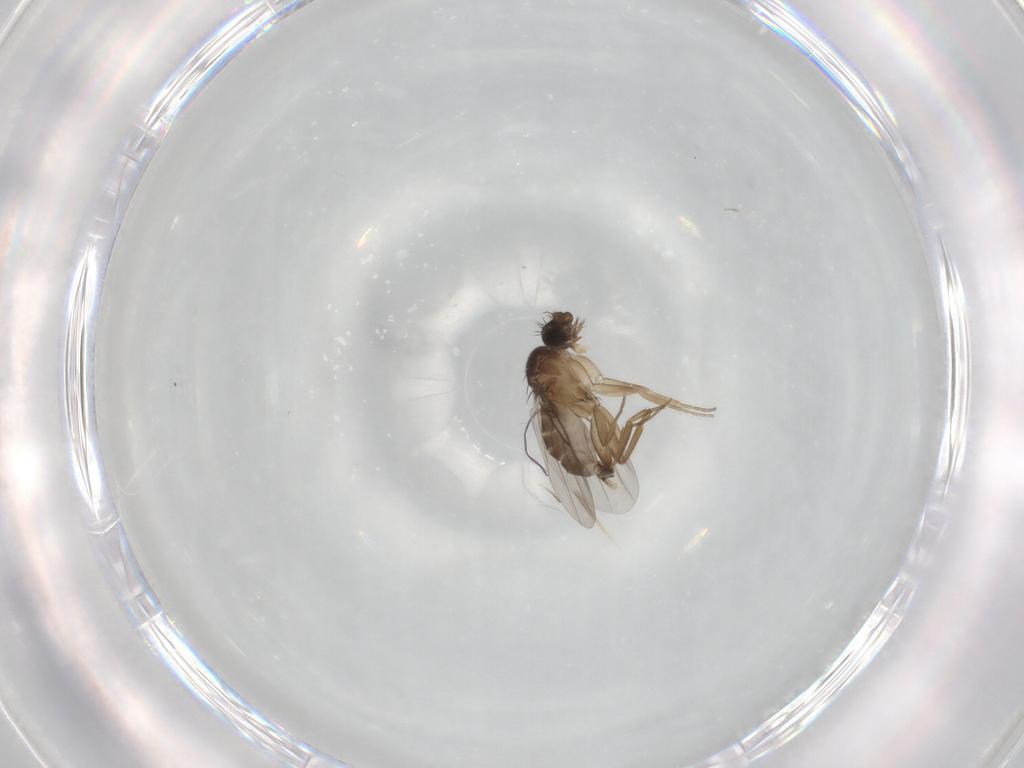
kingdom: Animalia
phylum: Arthropoda
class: Insecta
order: Diptera
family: Phoridae
